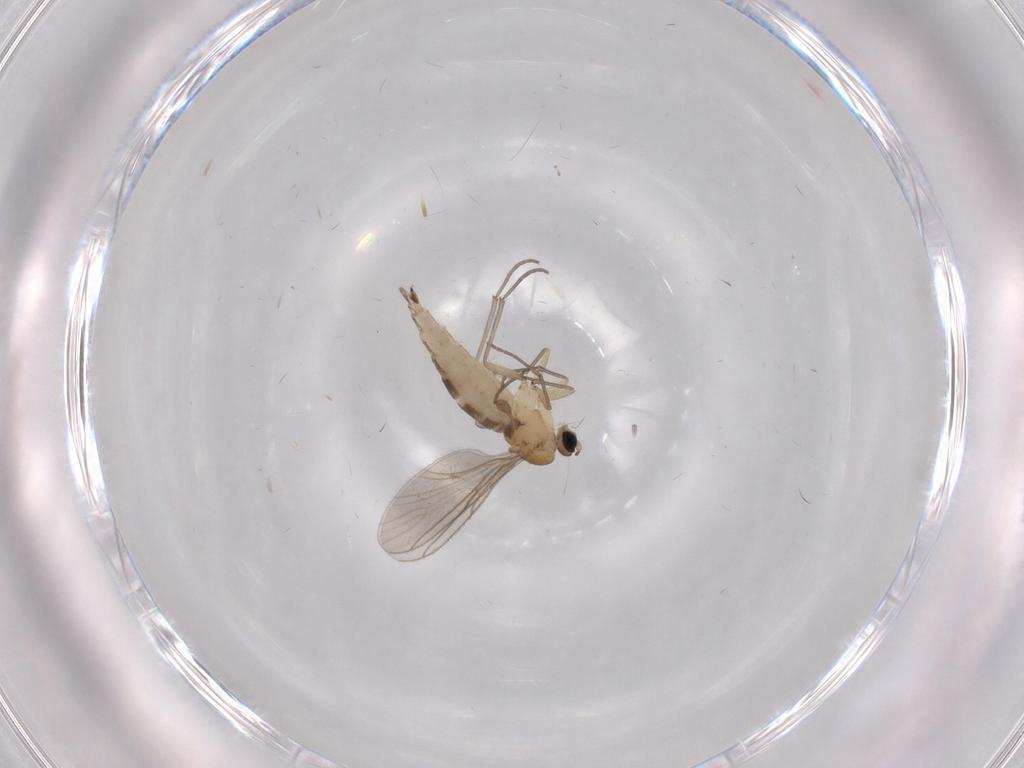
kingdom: Animalia
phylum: Arthropoda
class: Insecta
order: Diptera
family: Sciaridae
